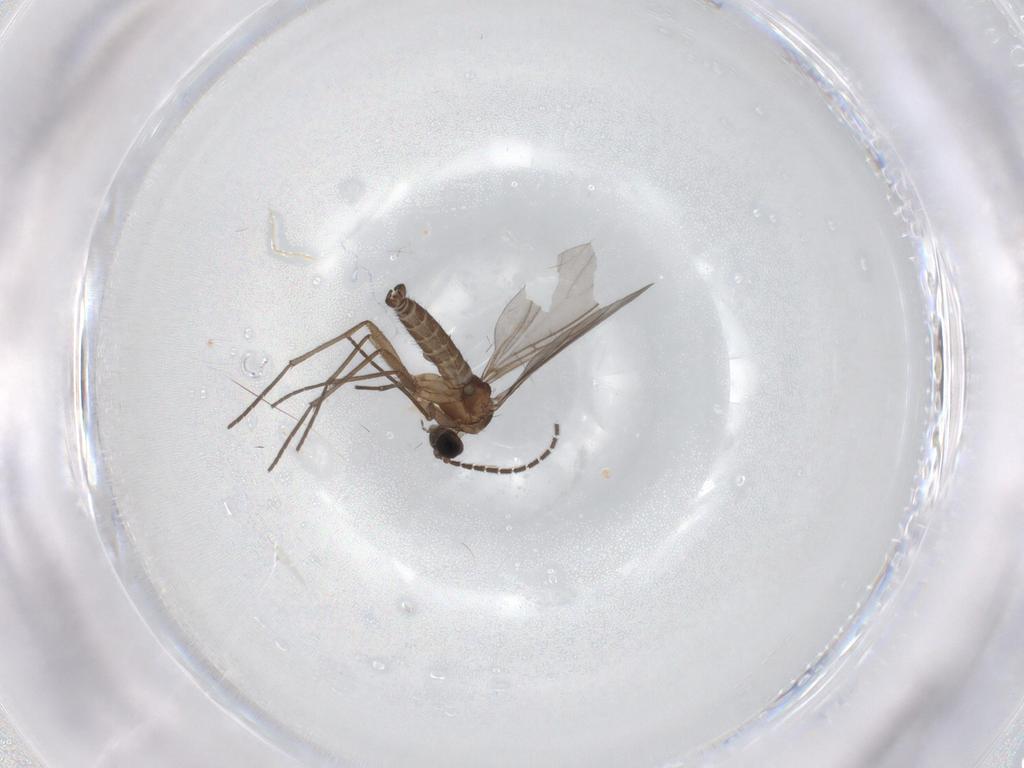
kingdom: Animalia
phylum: Arthropoda
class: Insecta
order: Diptera
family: Sciaridae
